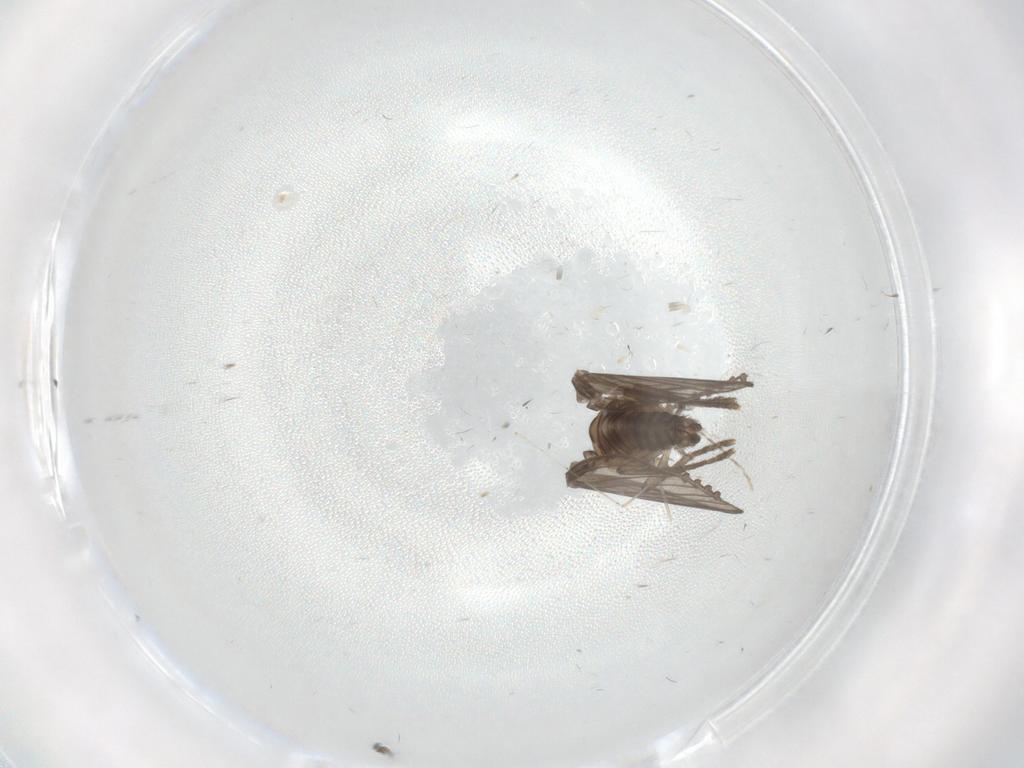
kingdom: Animalia
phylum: Arthropoda
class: Insecta
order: Diptera
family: Psychodidae
